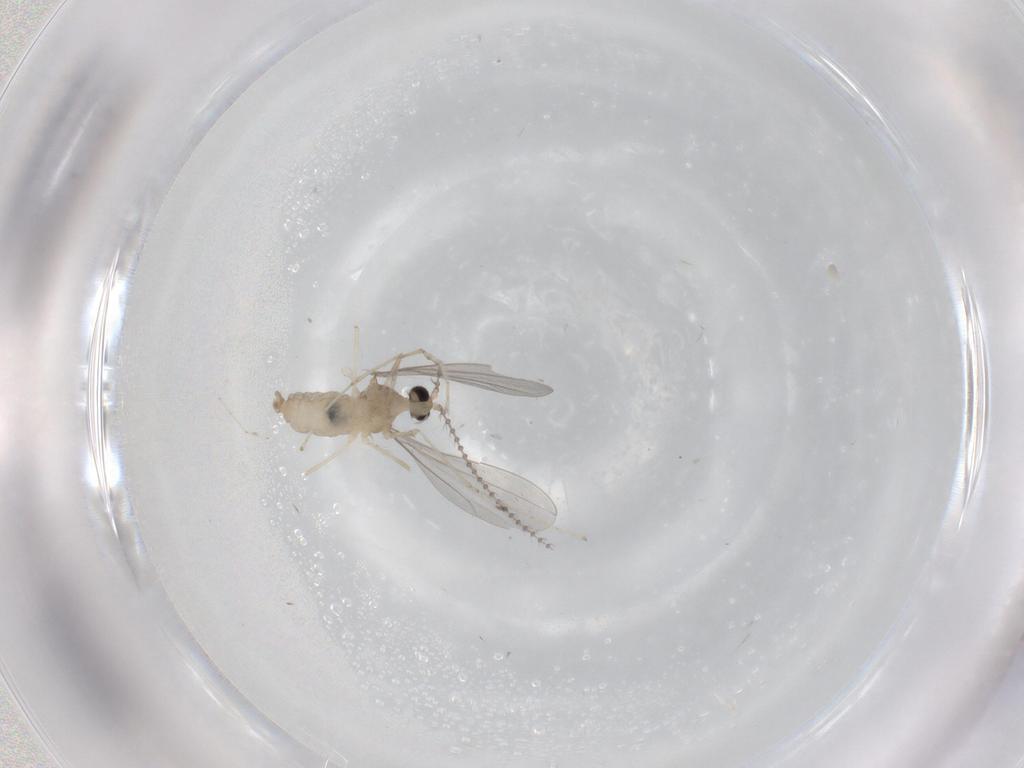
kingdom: Animalia
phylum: Arthropoda
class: Insecta
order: Diptera
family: Cecidomyiidae
